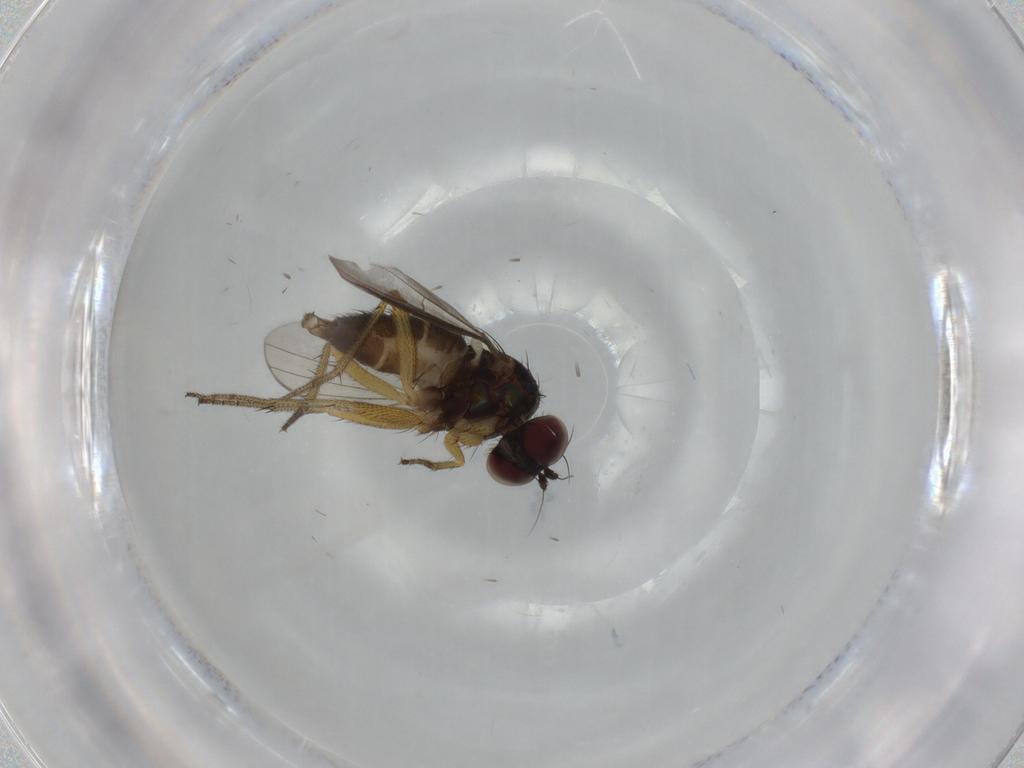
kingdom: Animalia
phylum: Arthropoda
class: Insecta
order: Diptera
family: Dolichopodidae
